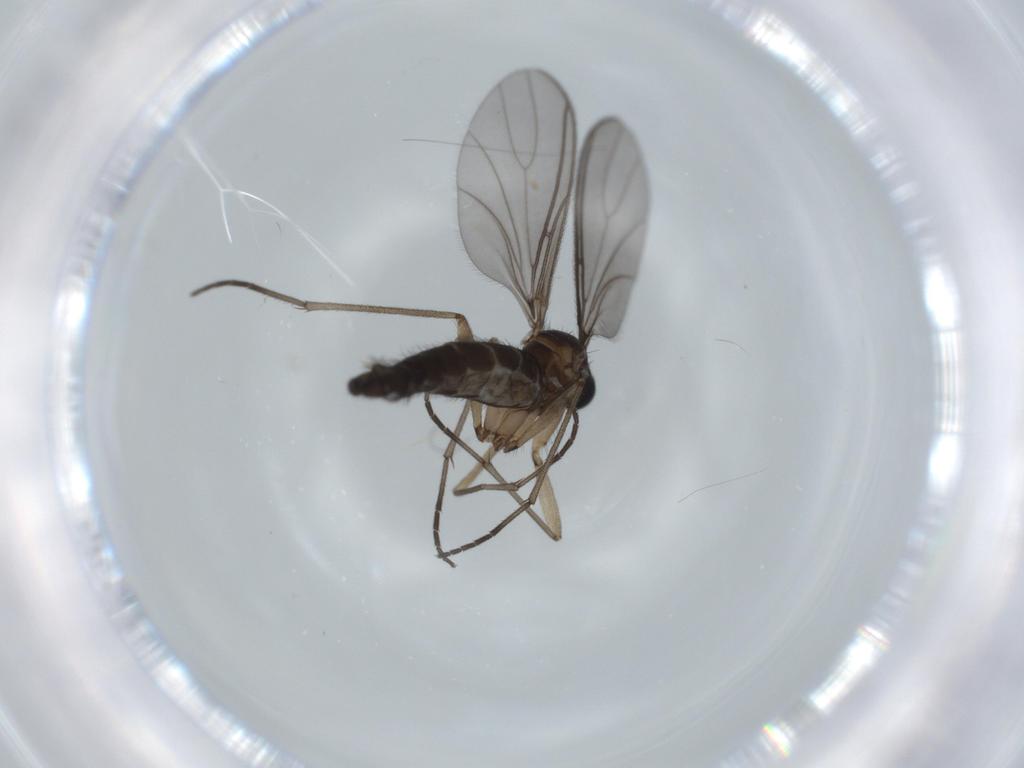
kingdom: Animalia
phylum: Arthropoda
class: Insecta
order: Diptera
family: Sciaridae
